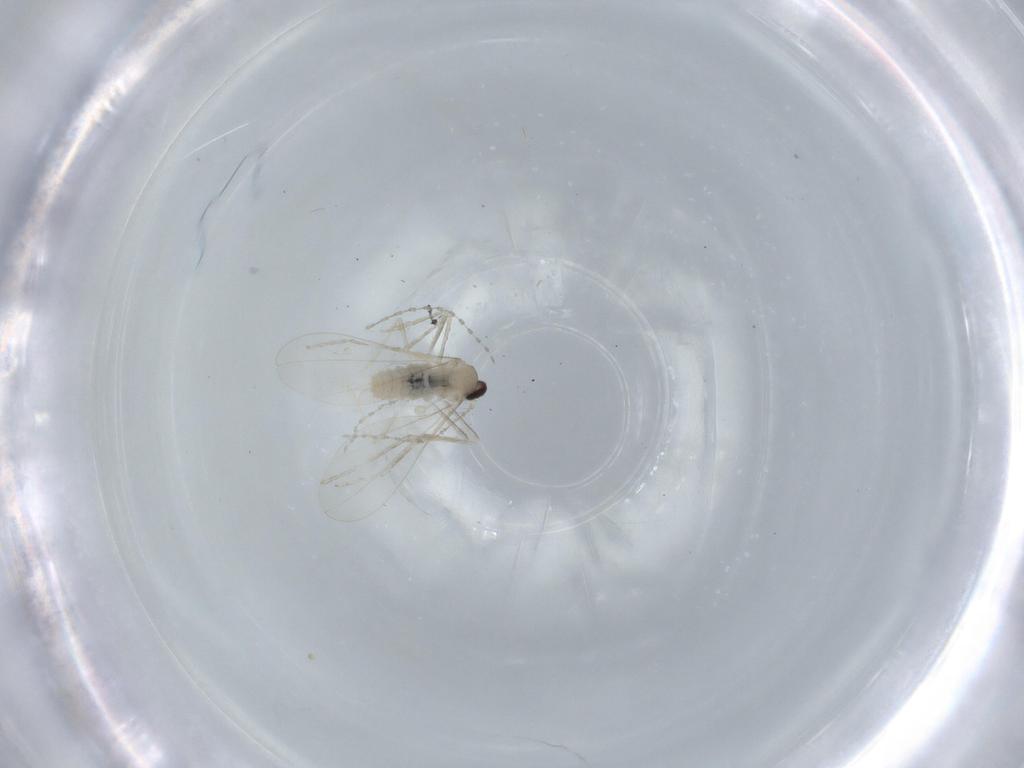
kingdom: Animalia
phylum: Arthropoda
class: Insecta
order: Diptera
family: Cecidomyiidae
